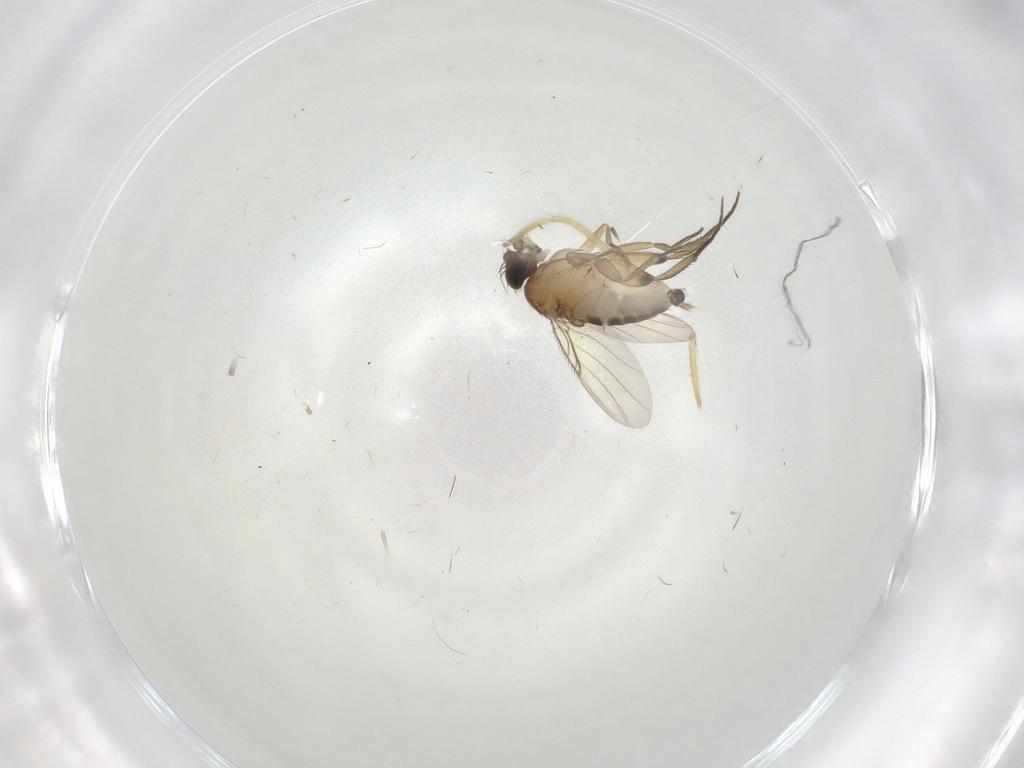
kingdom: Animalia
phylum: Arthropoda
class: Insecta
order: Diptera
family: Phoridae
